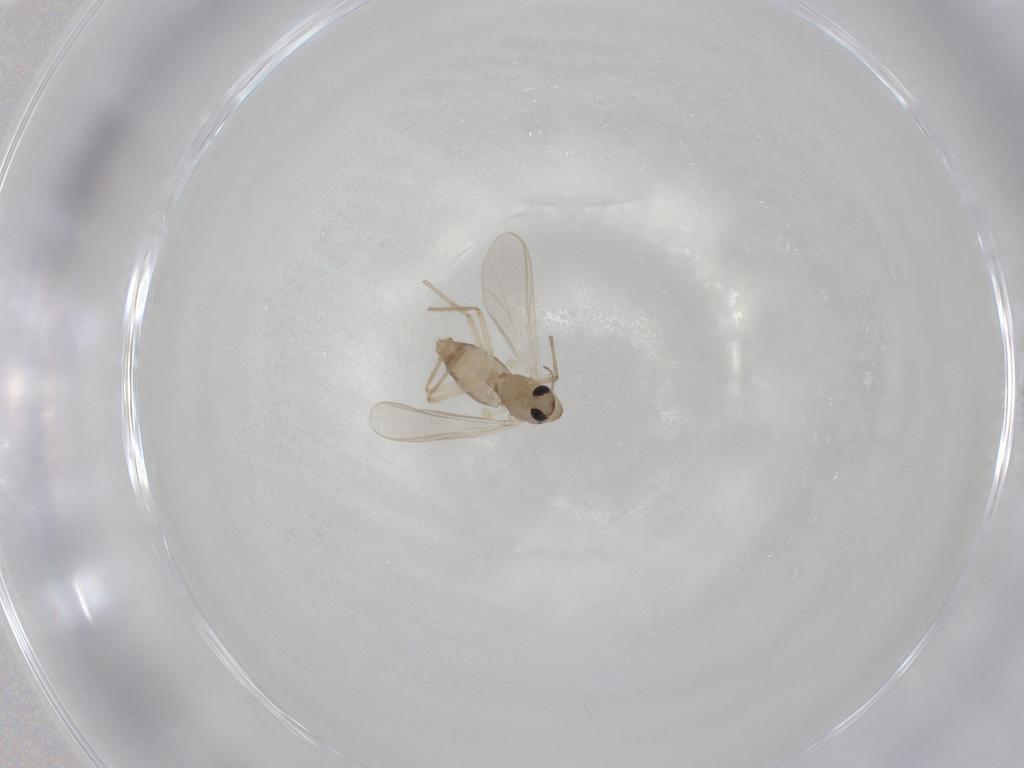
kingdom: Animalia
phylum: Arthropoda
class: Insecta
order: Diptera
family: Chironomidae
